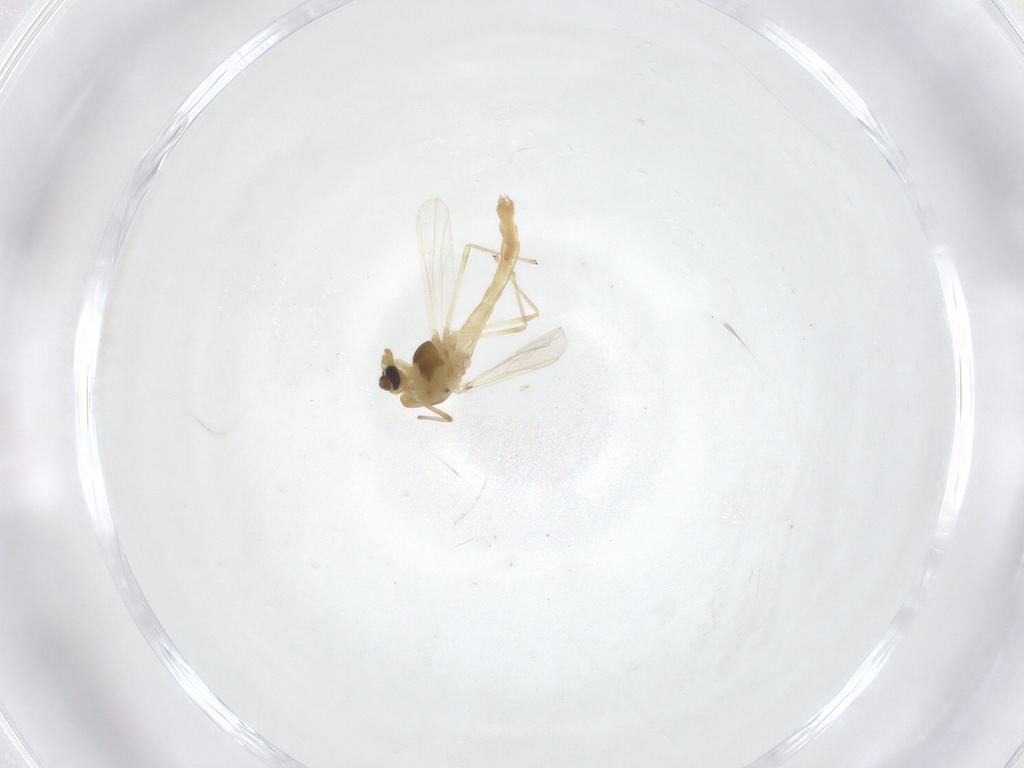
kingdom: Animalia
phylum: Arthropoda
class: Insecta
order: Diptera
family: Chironomidae
